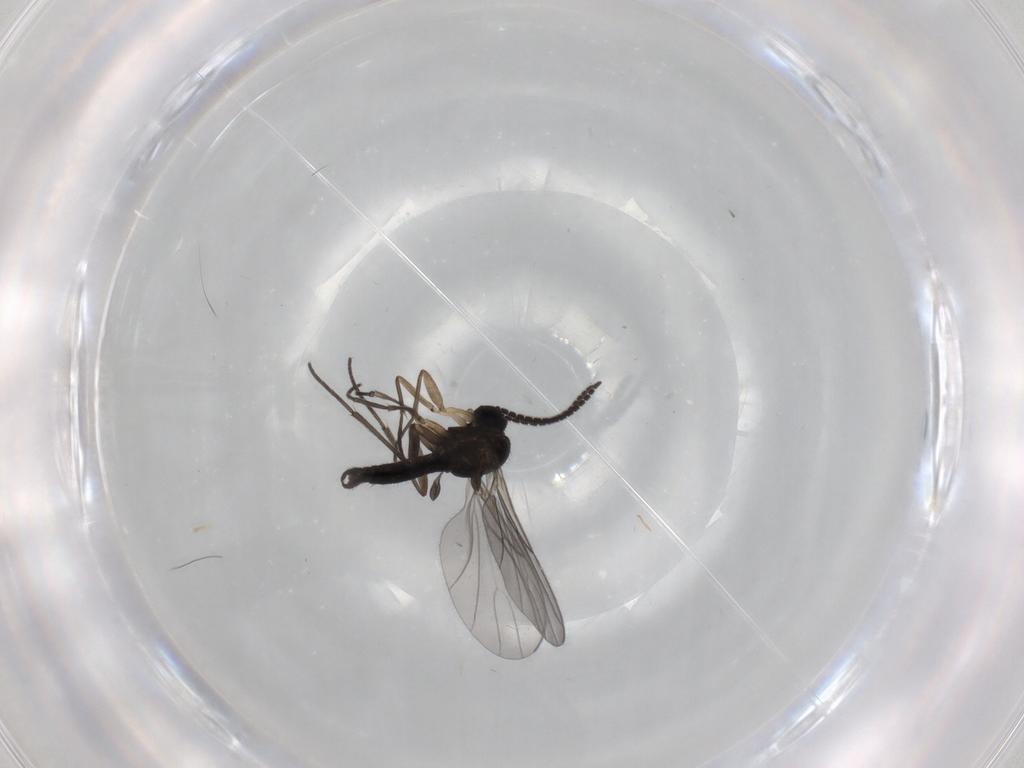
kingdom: Animalia
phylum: Arthropoda
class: Insecta
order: Diptera
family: Sciaridae
